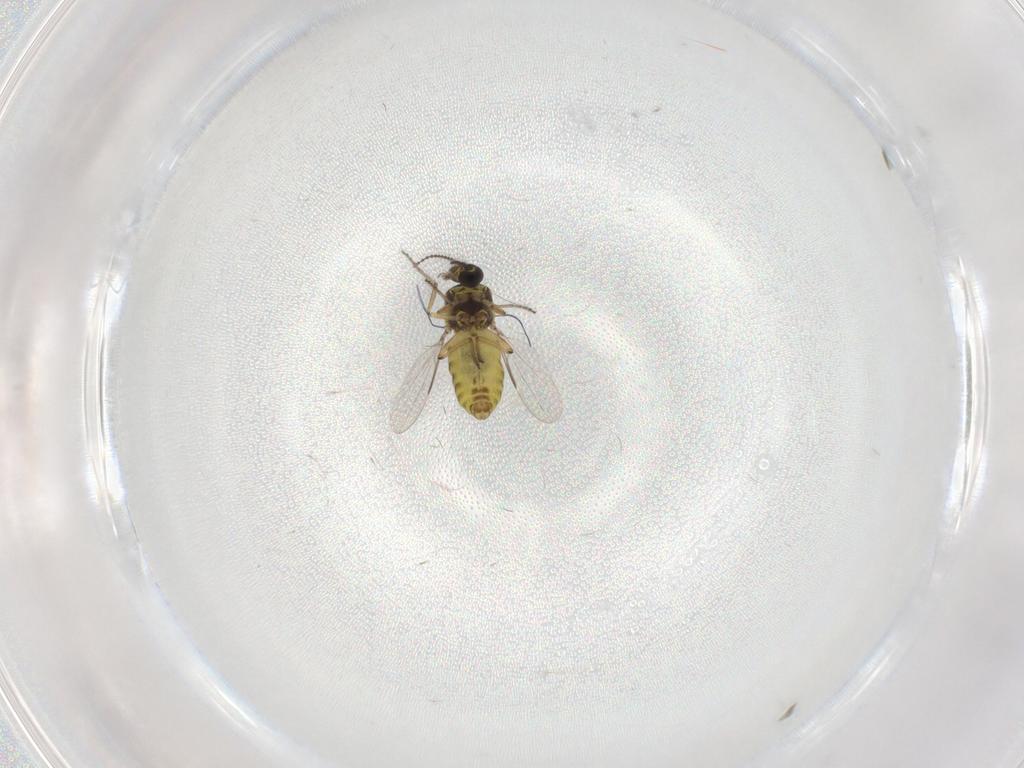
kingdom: Animalia
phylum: Arthropoda
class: Insecta
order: Diptera
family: Ceratopogonidae
